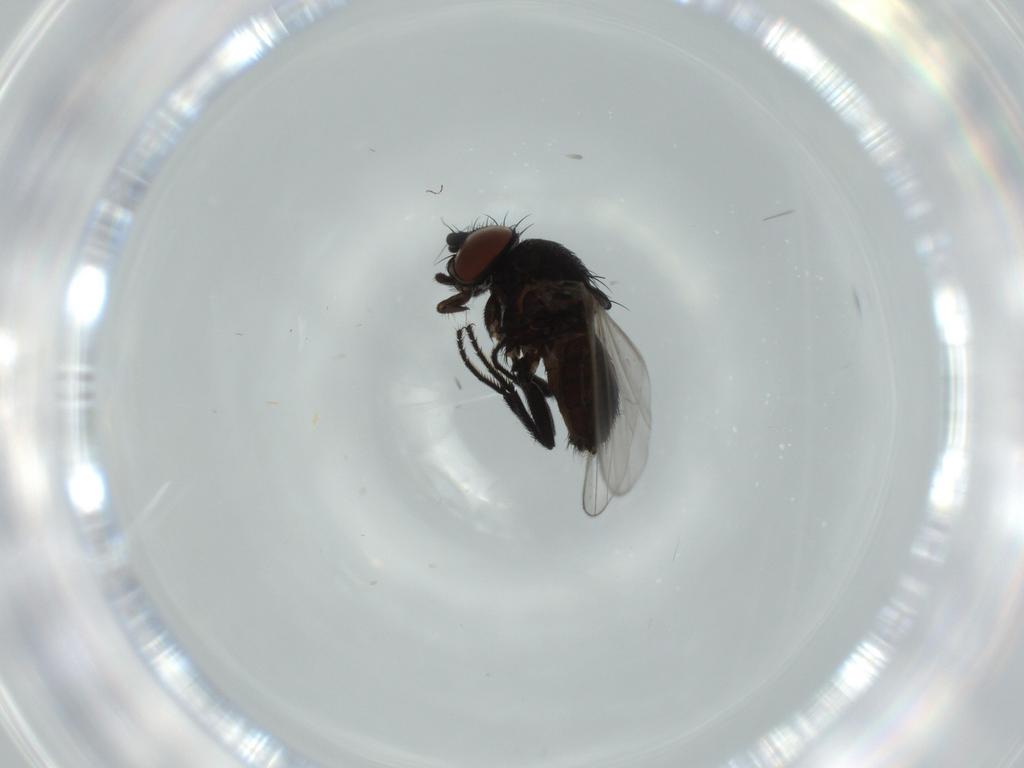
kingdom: Animalia
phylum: Arthropoda
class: Insecta
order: Diptera
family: Milichiidae
